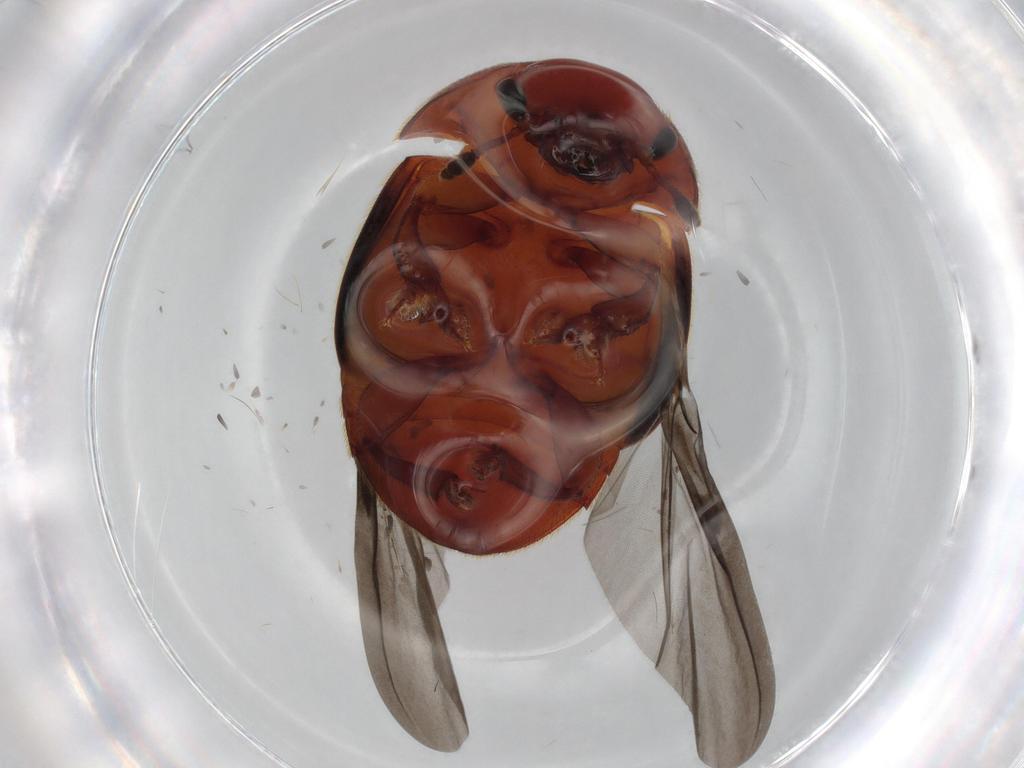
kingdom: Animalia
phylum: Arthropoda
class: Insecta
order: Coleoptera
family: Nitidulidae
